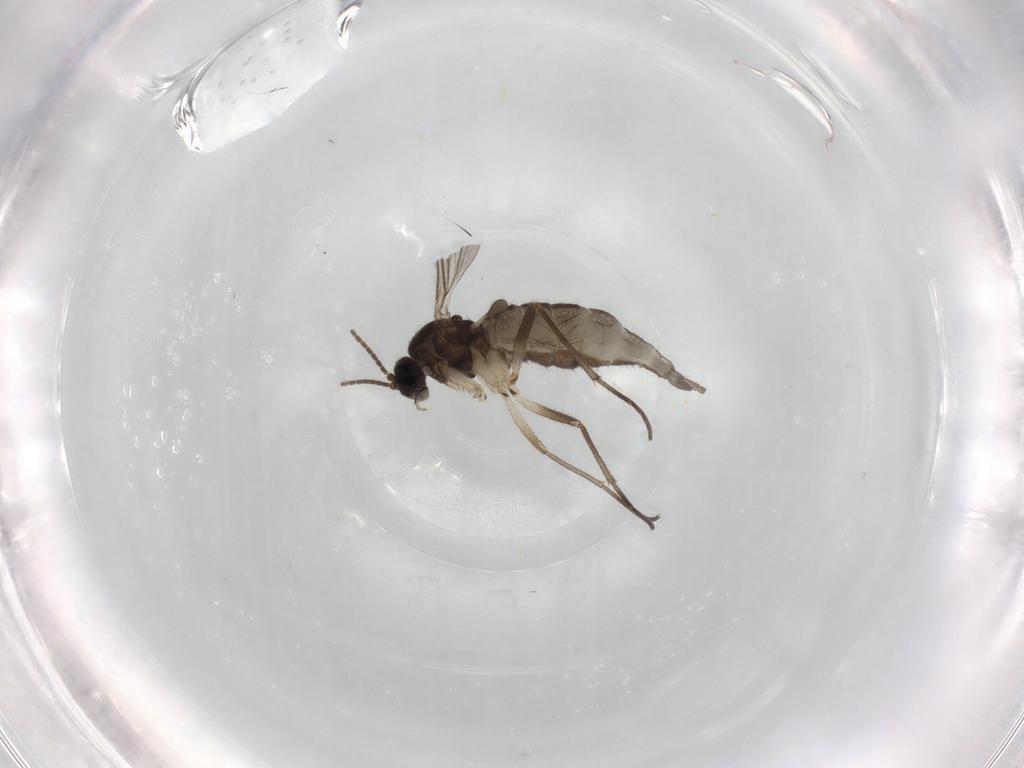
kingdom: Animalia
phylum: Arthropoda
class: Insecta
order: Diptera
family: Sciaridae
